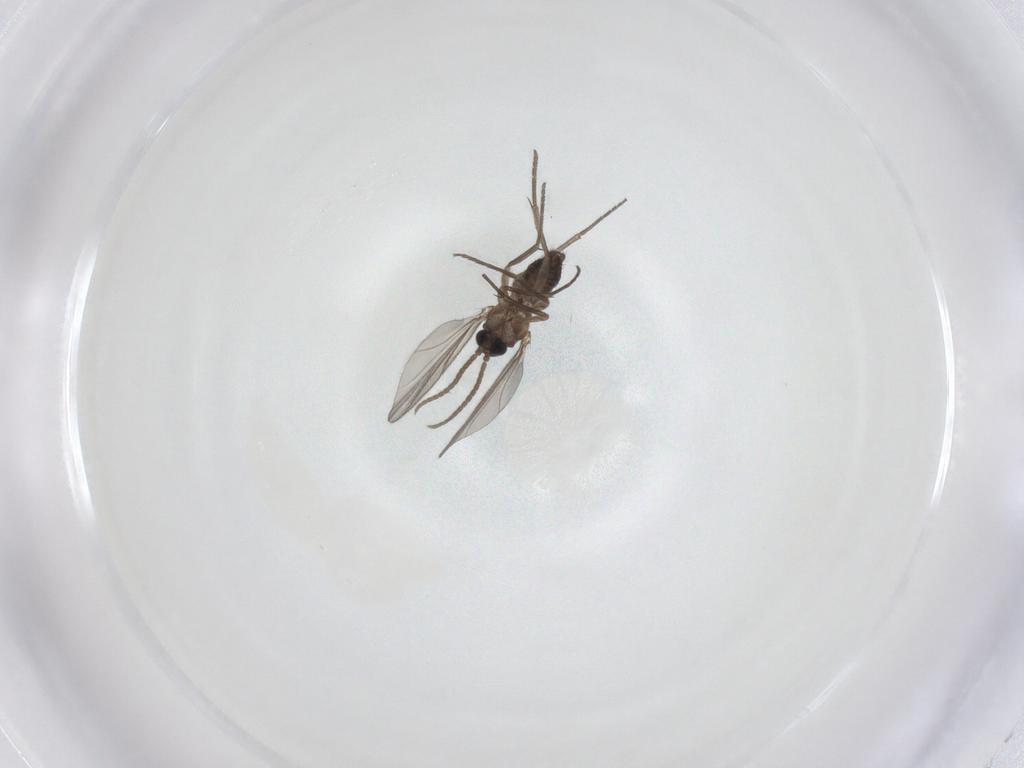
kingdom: Animalia
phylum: Arthropoda
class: Insecta
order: Diptera
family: Sciaridae
